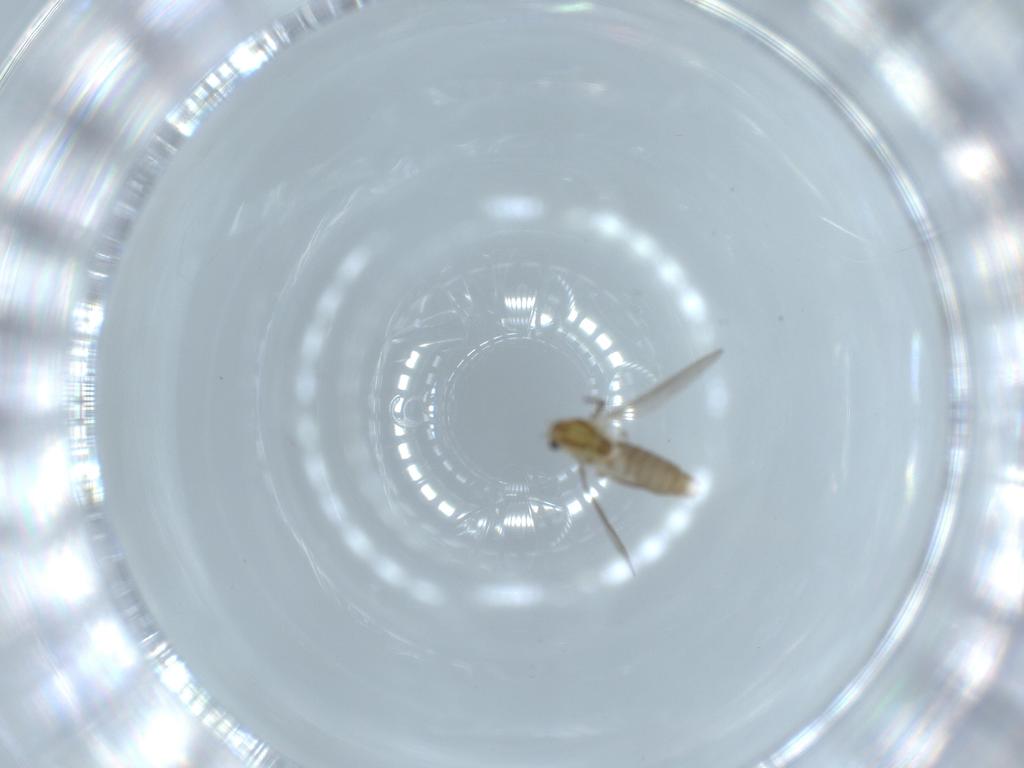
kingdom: Animalia
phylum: Arthropoda
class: Insecta
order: Diptera
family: Chironomidae
